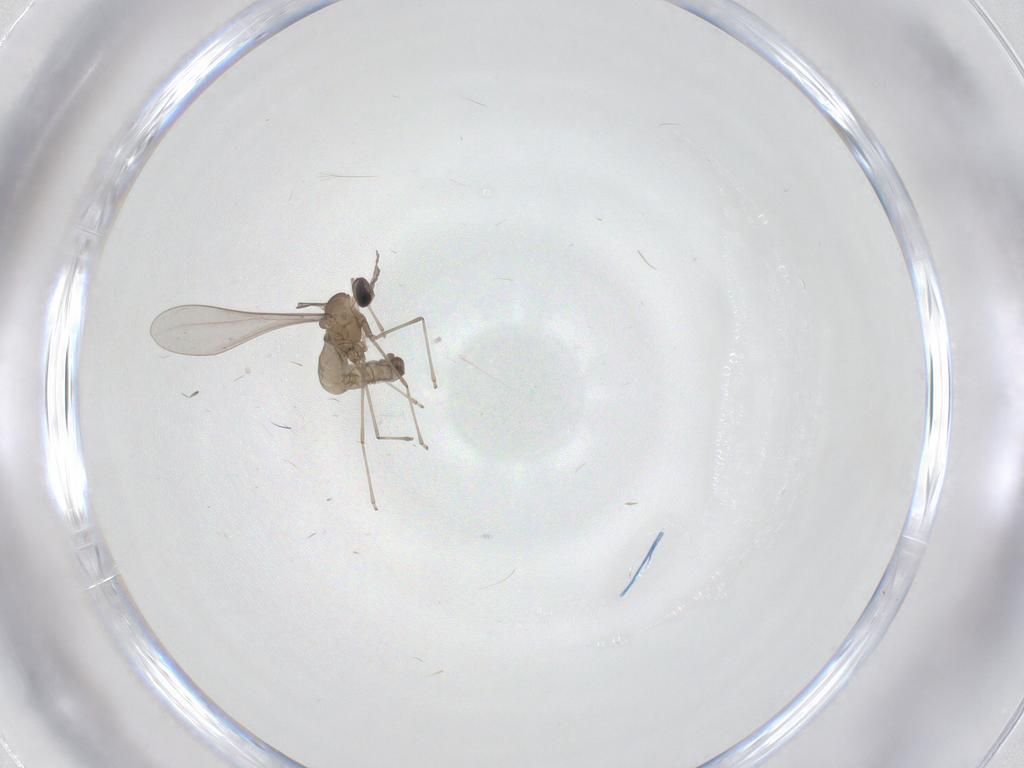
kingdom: Animalia
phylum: Arthropoda
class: Insecta
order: Diptera
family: Cecidomyiidae
